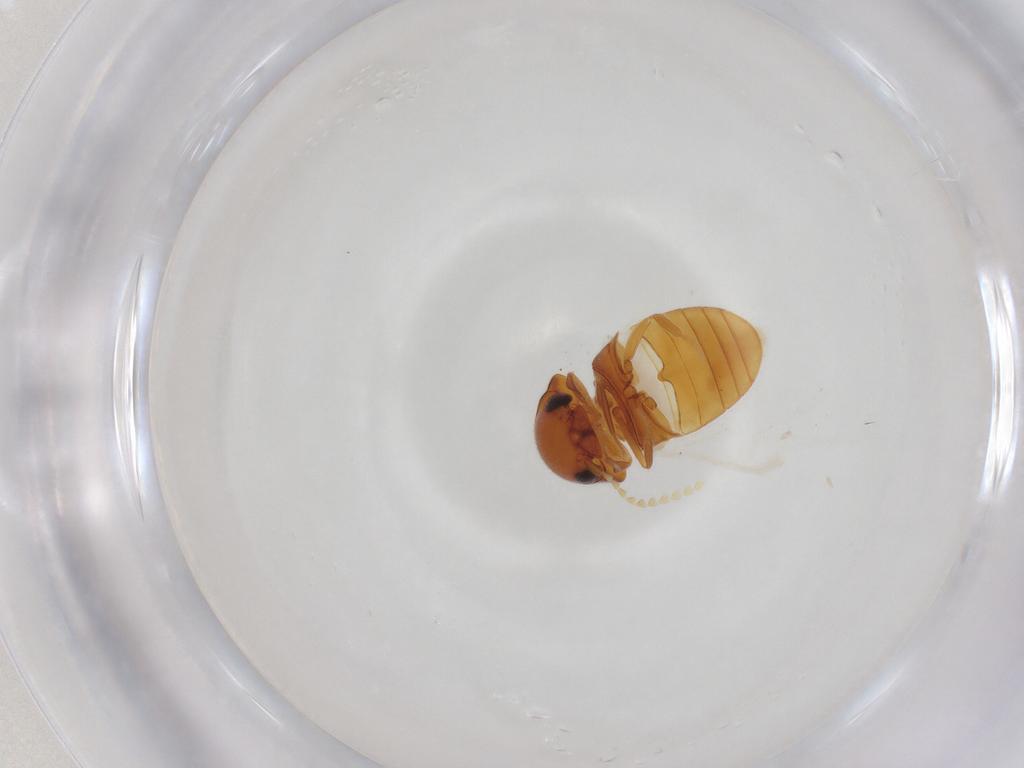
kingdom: Animalia
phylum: Arthropoda
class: Insecta
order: Coleoptera
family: Ptinidae
